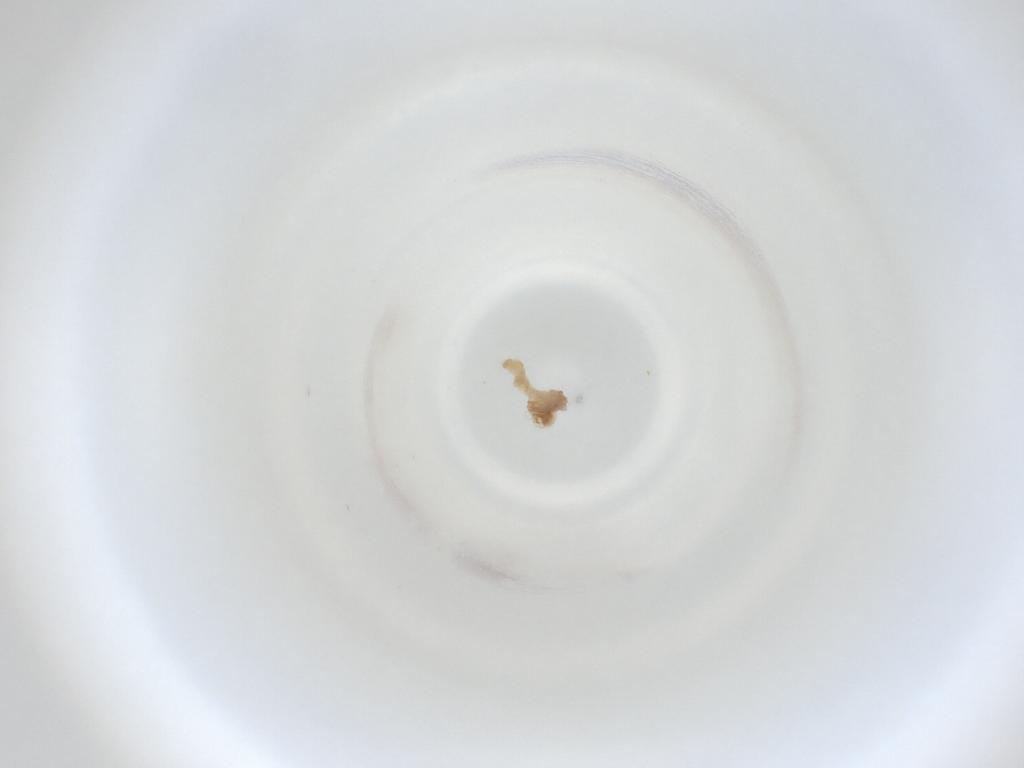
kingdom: Animalia
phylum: Arthropoda
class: Insecta
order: Diptera
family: Cecidomyiidae
